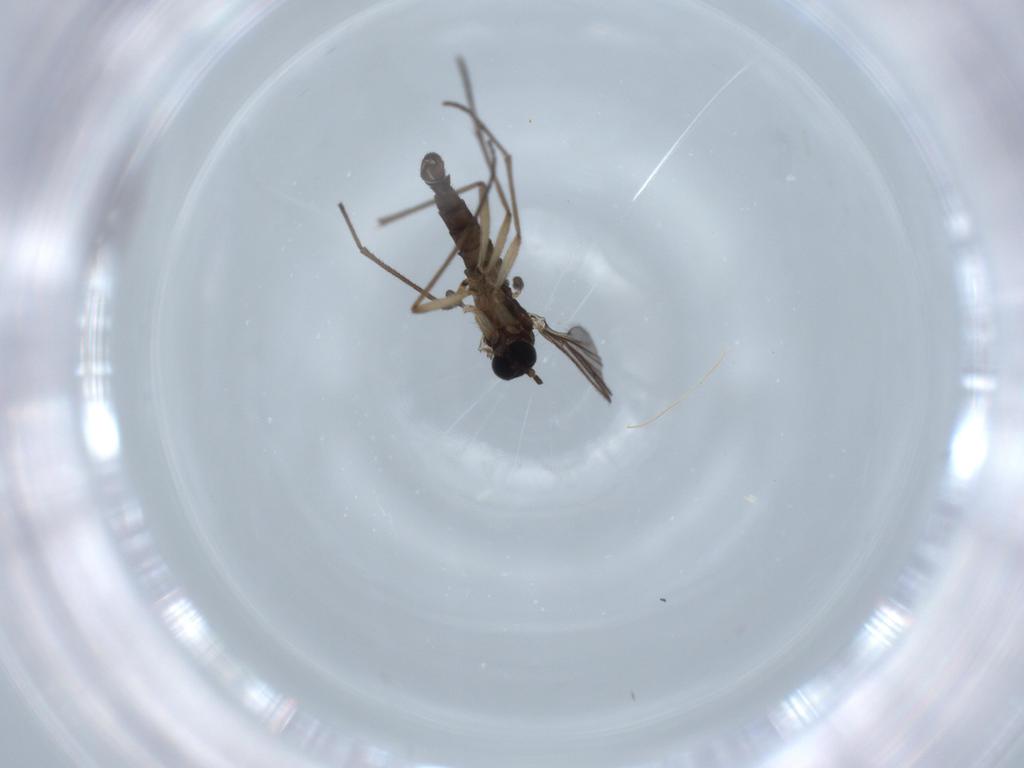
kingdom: Animalia
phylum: Arthropoda
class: Insecta
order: Diptera
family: Sciaridae
